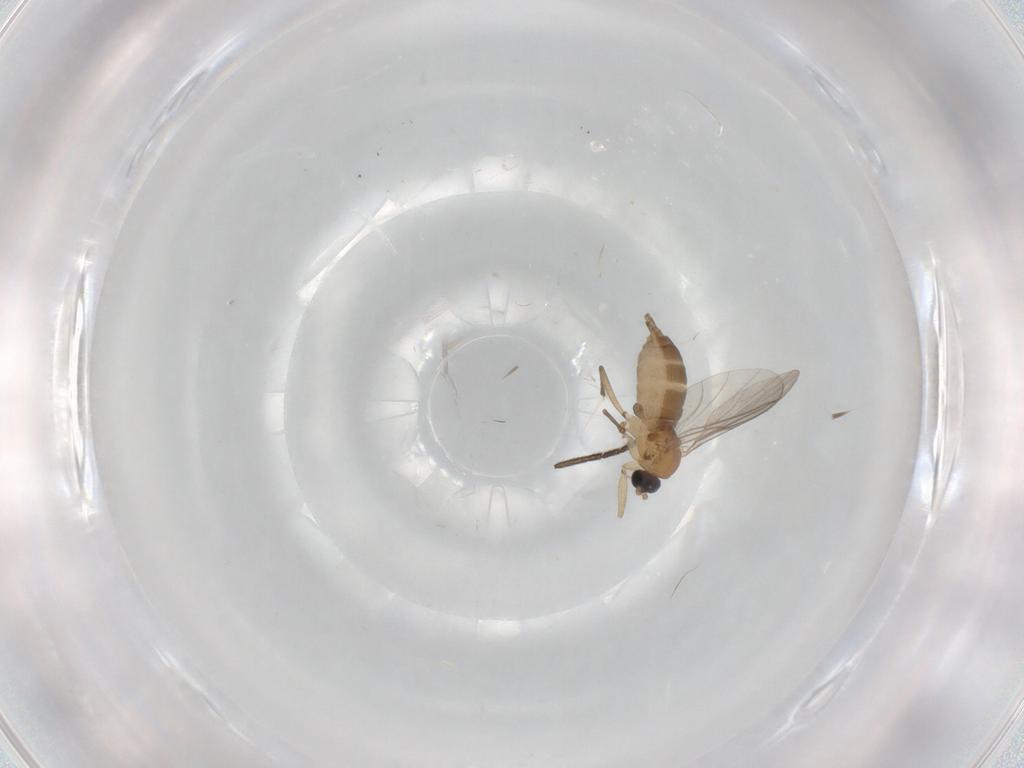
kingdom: Animalia
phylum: Arthropoda
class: Insecta
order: Diptera
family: Sciaridae
